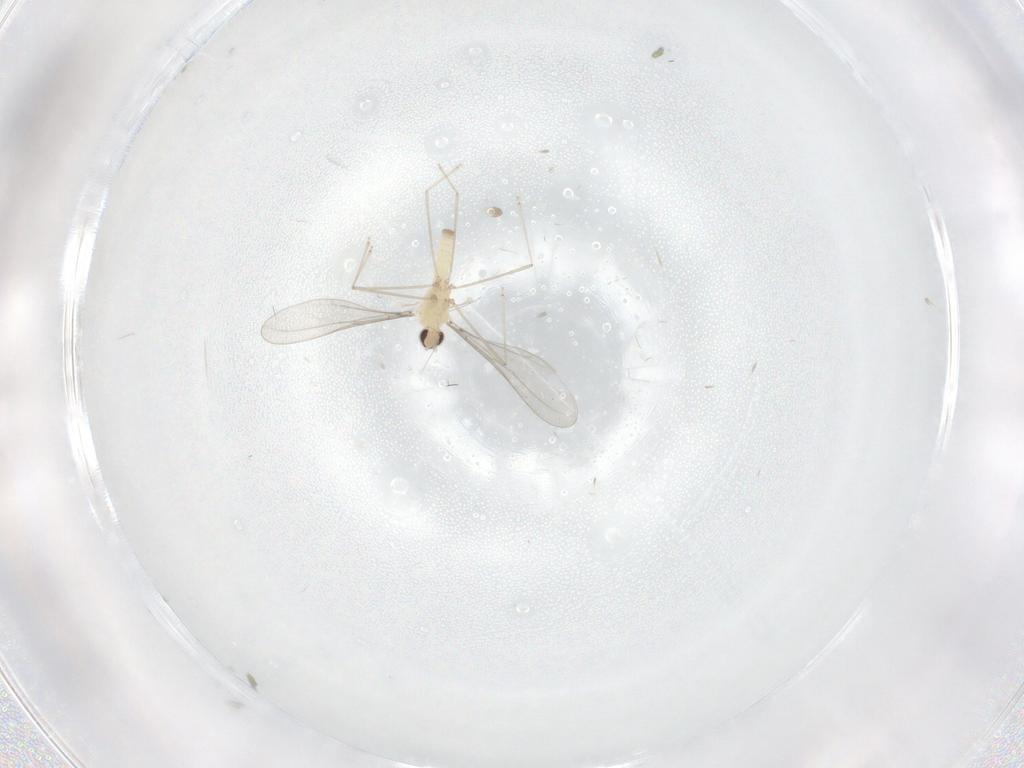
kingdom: Animalia
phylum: Arthropoda
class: Insecta
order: Diptera
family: Cecidomyiidae
